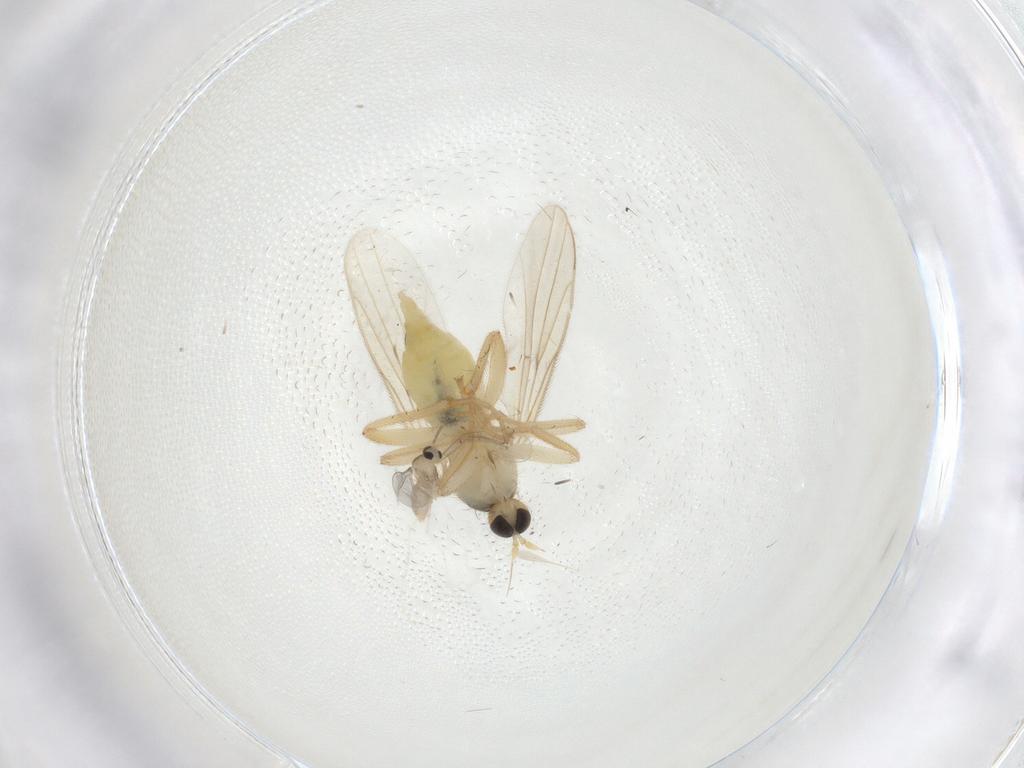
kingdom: Animalia
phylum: Arthropoda
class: Insecta
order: Diptera
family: Hybotidae
